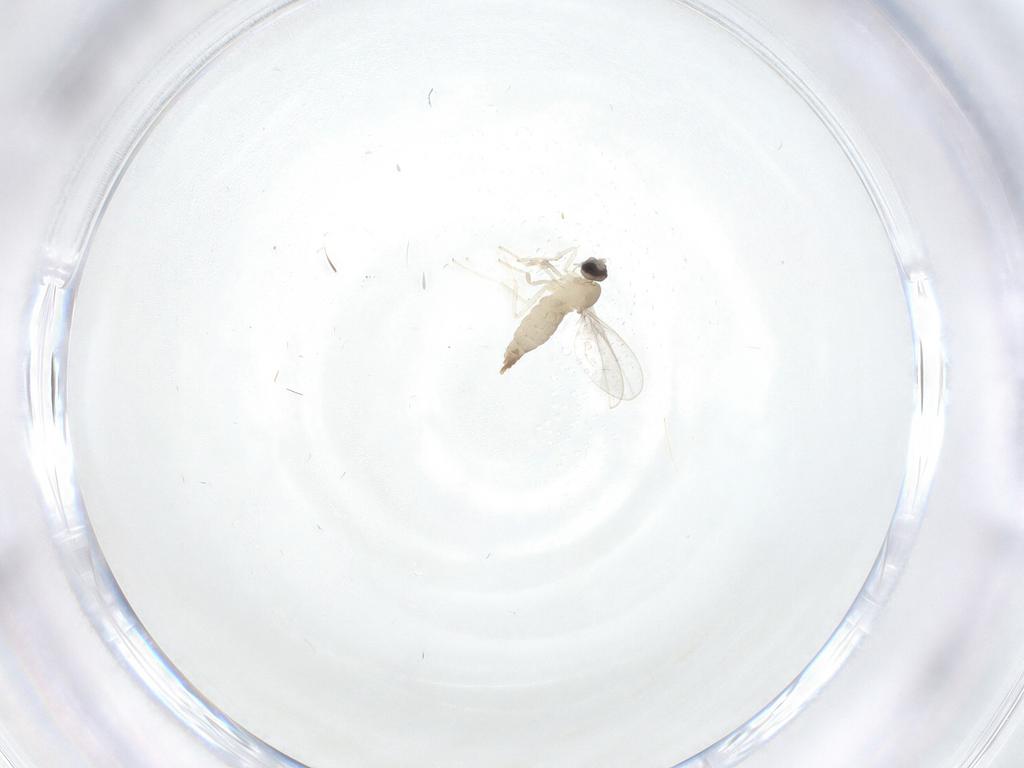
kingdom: Animalia
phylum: Arthropoda
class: Insecta
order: Diptera
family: Cecidomyiidae
